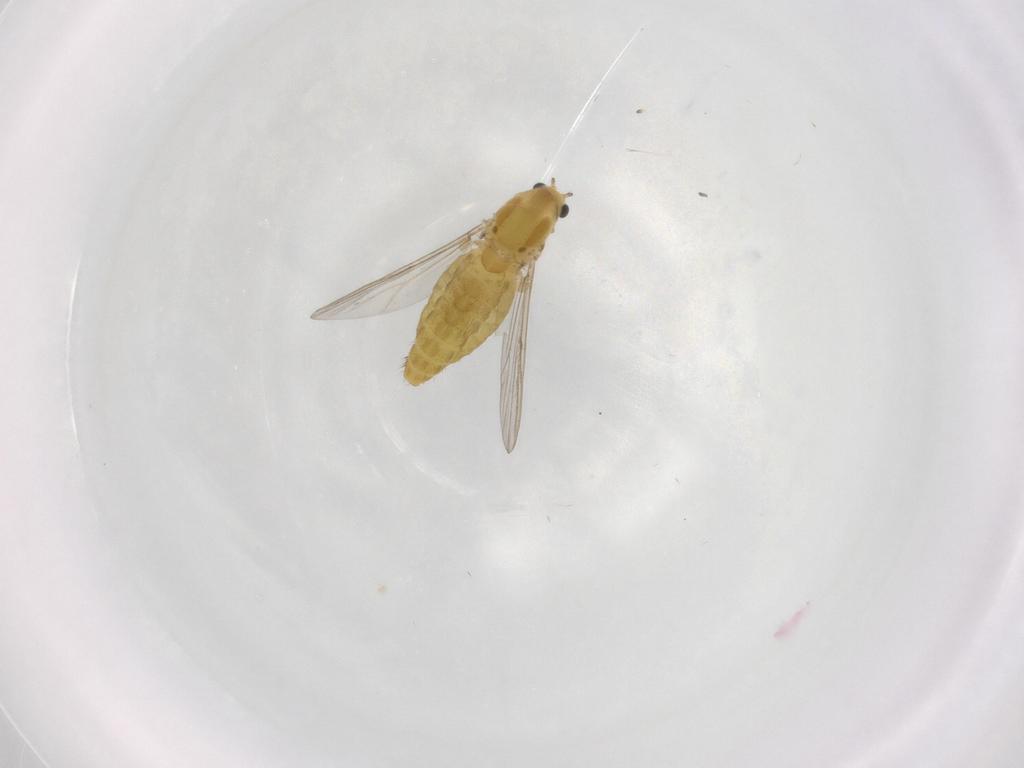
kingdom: Animalia
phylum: Arthropoda
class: Insecta
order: Diptera
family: Chironomidae
